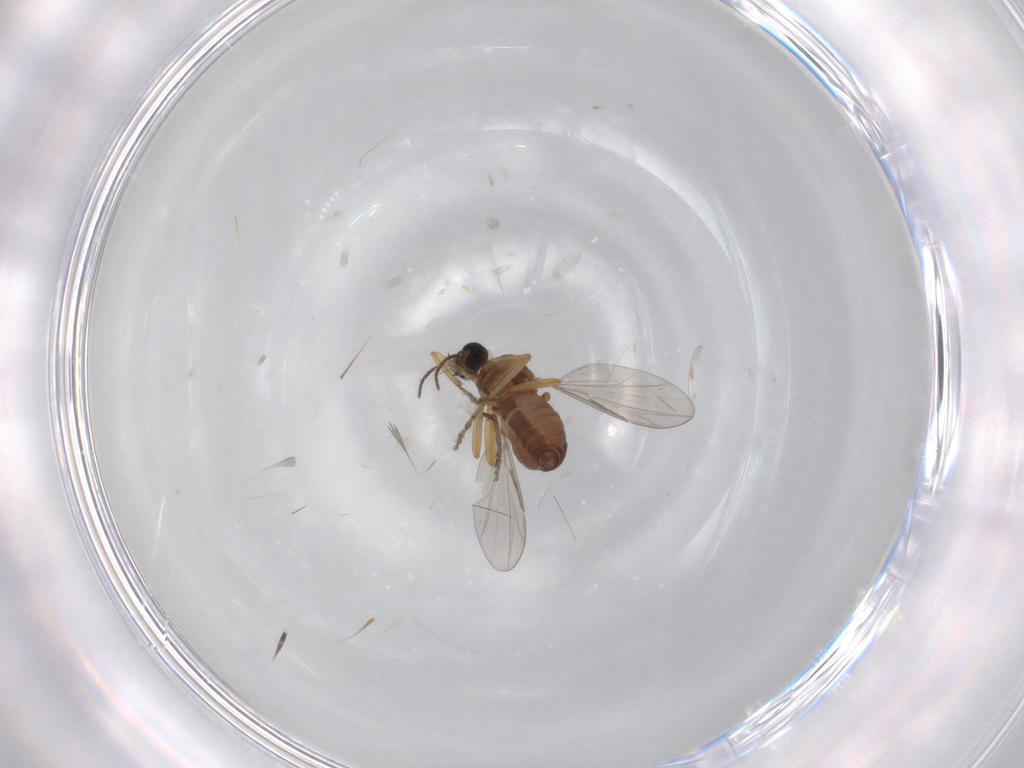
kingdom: Animalia
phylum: Arthropoda
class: Insecta
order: Diptera
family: Ceratopogonidae
